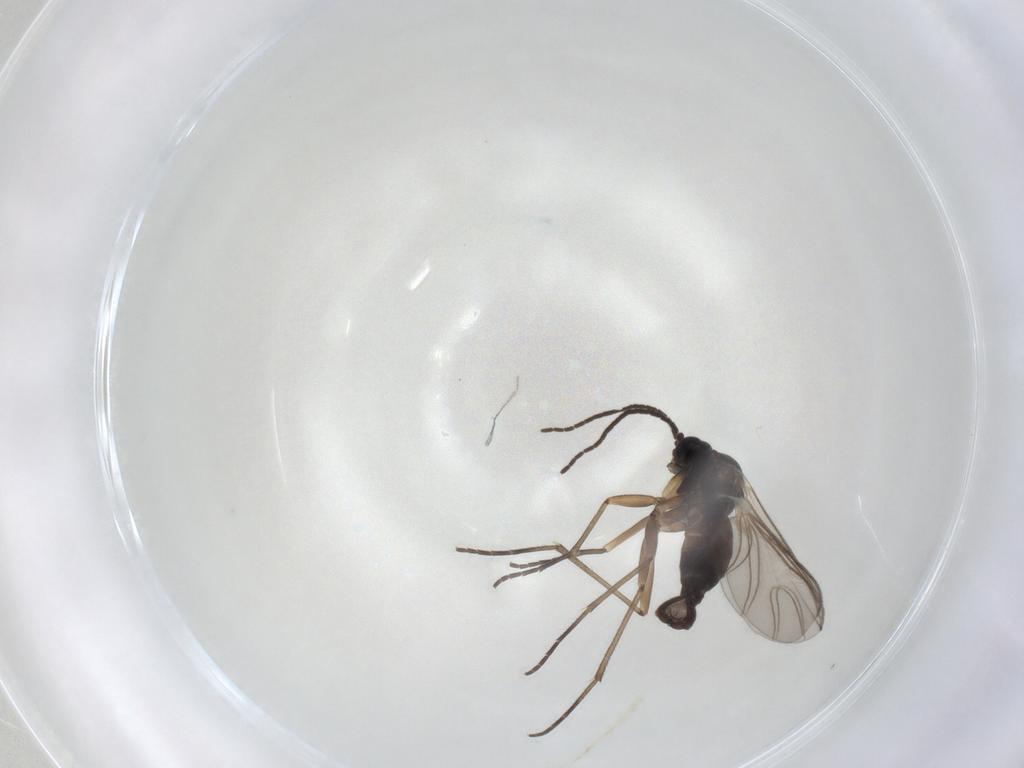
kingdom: Animalia
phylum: Arthropoda
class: Insecta
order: Diptera
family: Sciaridae
